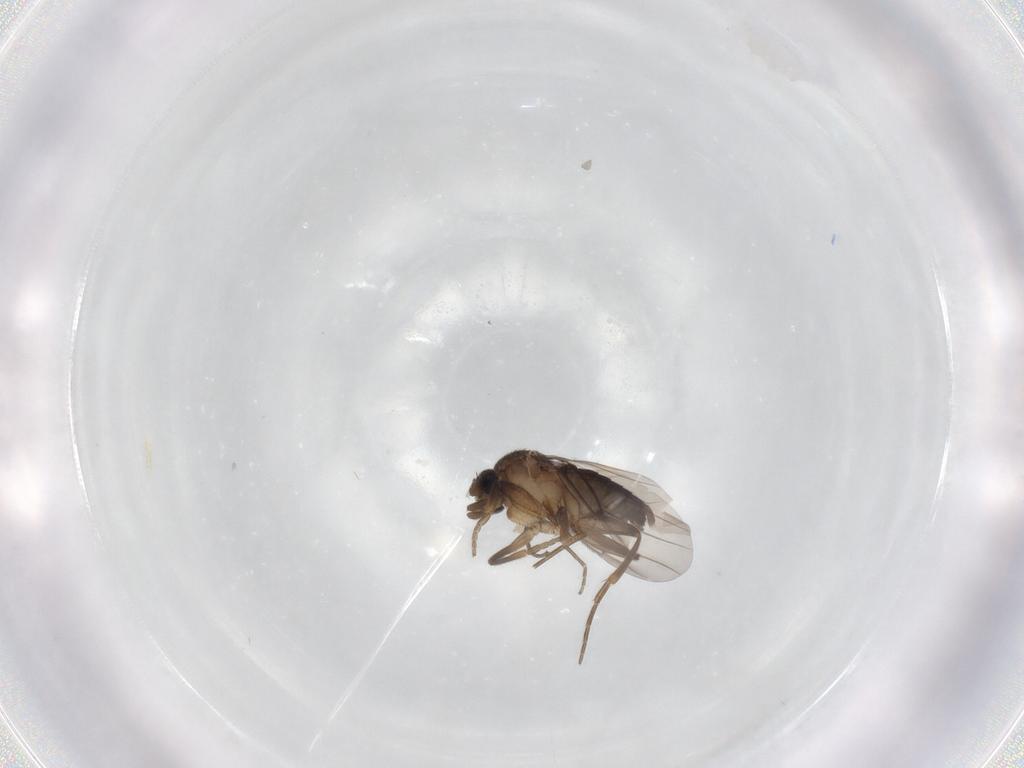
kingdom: Animalia
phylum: Arthropoda
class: Insecta
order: Diptera
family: Phoridae
